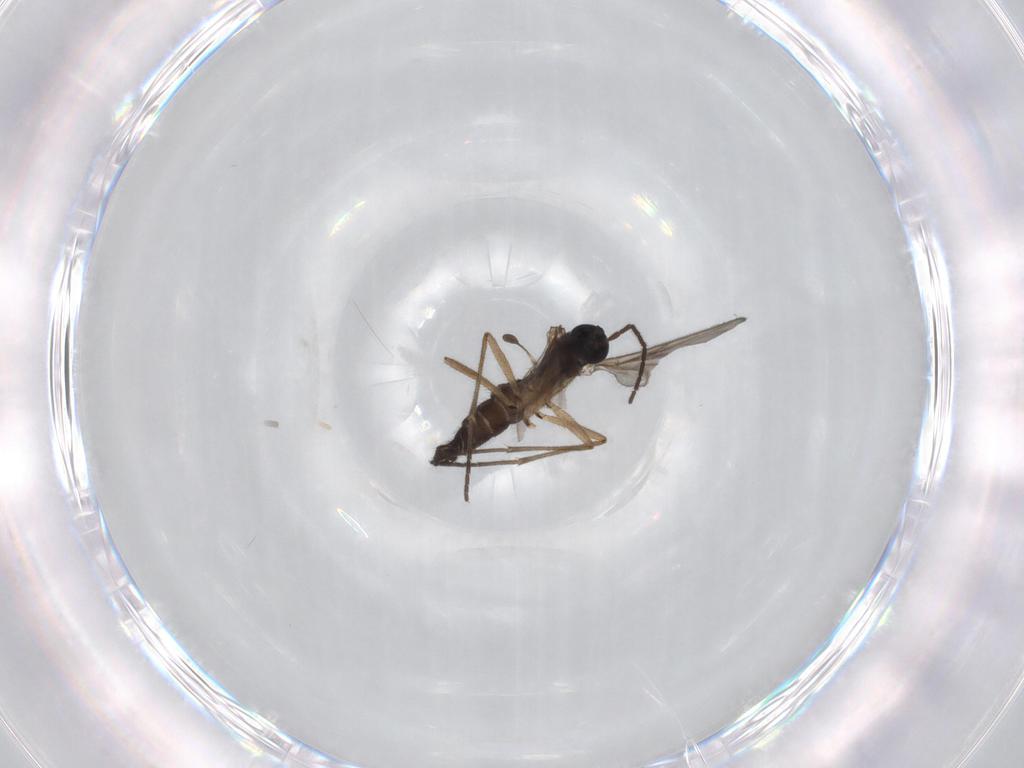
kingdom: Animalia
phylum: Arthropoda
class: Insecta
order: Diptera
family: Sciaridae
